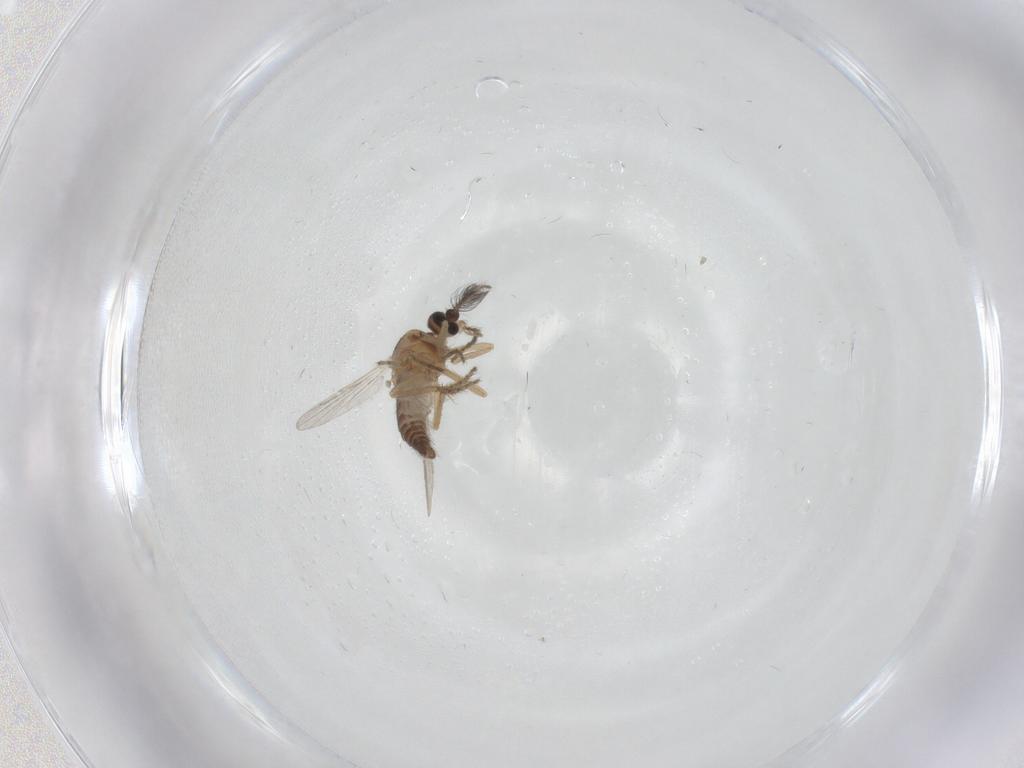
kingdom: Animalia
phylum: Arthropoda
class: Insecta
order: Diptera
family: Ceratopogonidae
